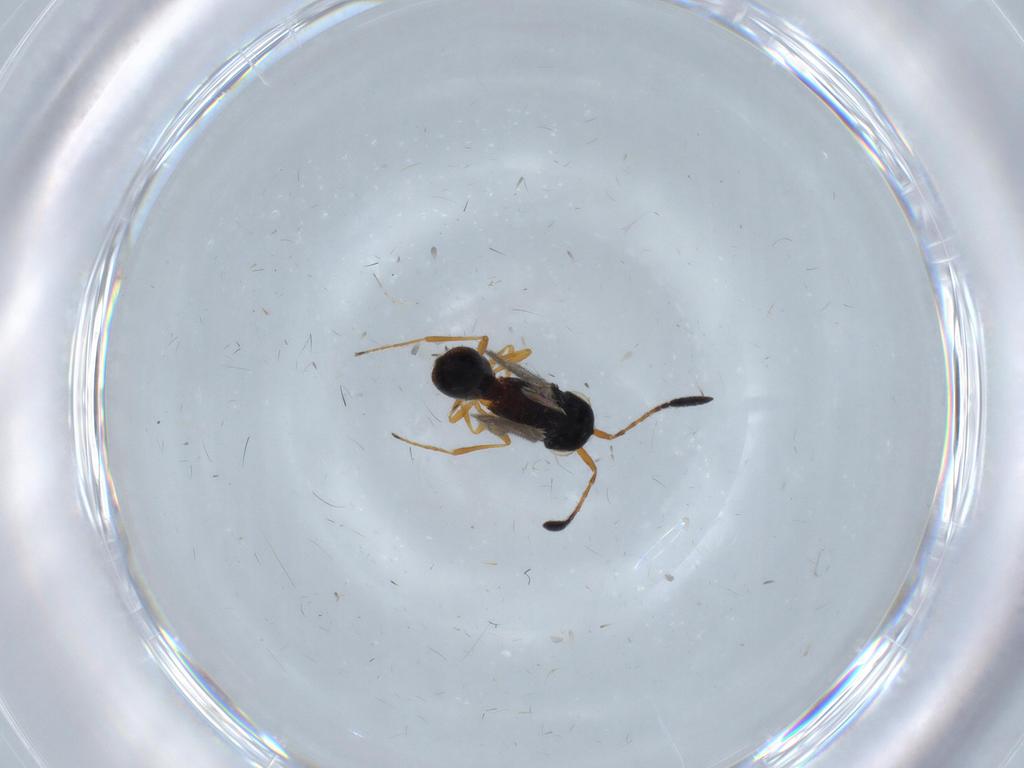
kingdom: Animalia
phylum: Arthropoda
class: Insecta
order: Hymenoptera
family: Scelionidae
